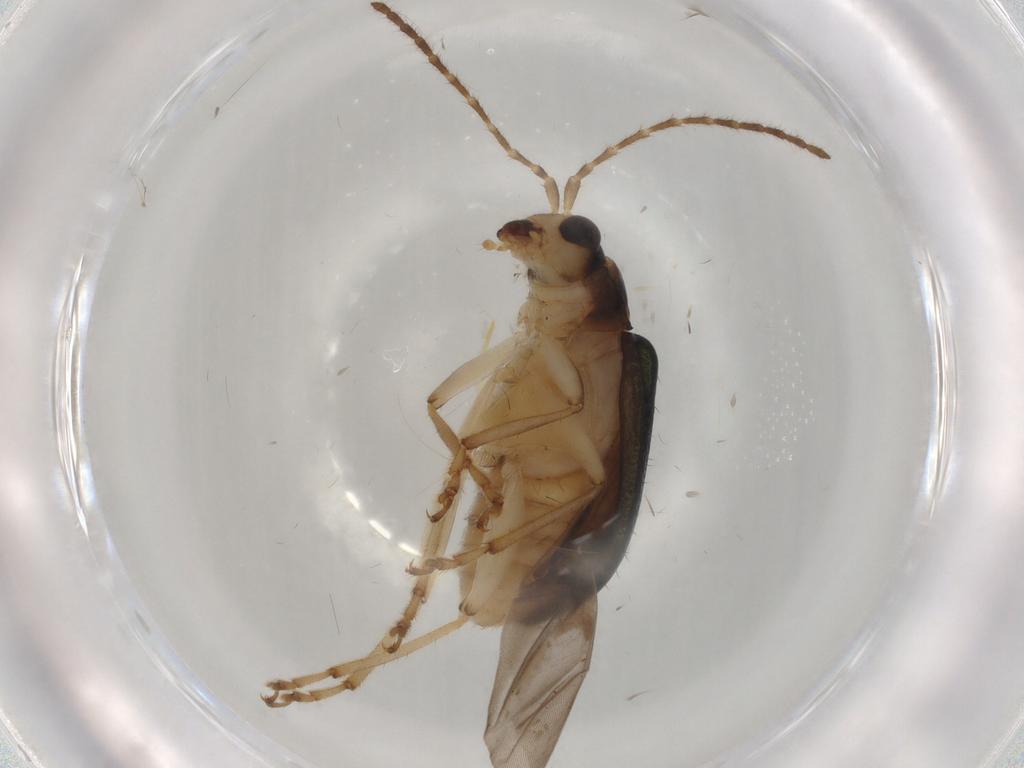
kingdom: Animalia
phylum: Arthropoda
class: Insecta
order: Coleoptera
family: Chrysomelidae
